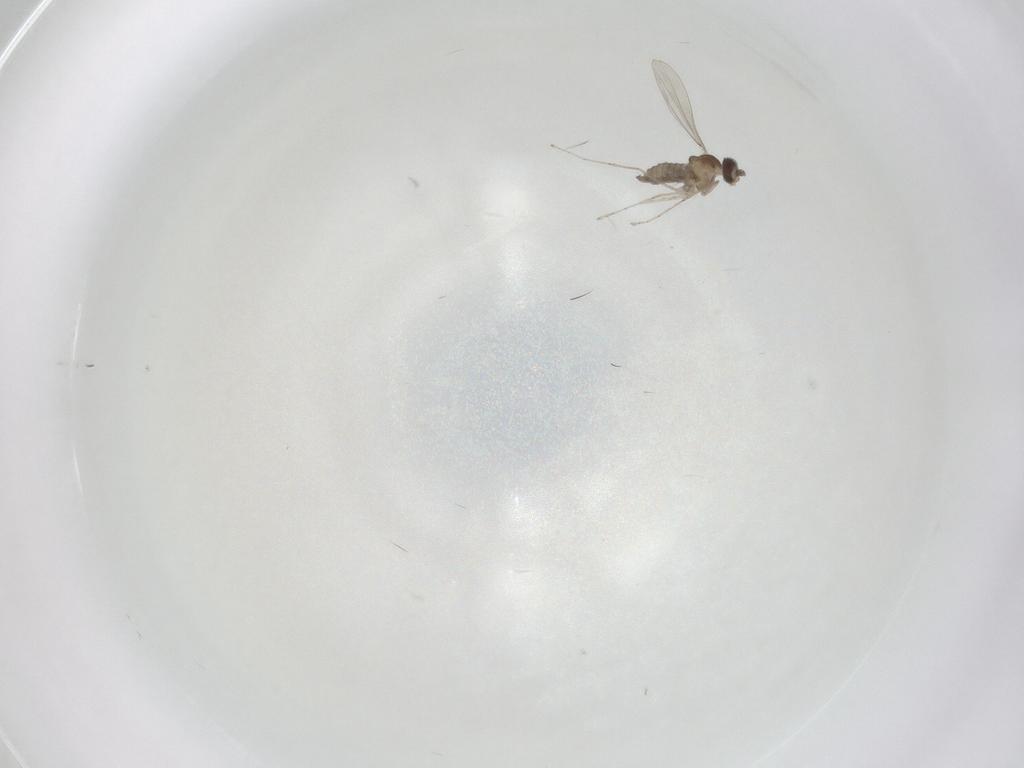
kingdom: Animalia
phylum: Arthropoda
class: Insecta
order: Diptera
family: Cecidomyiidae
